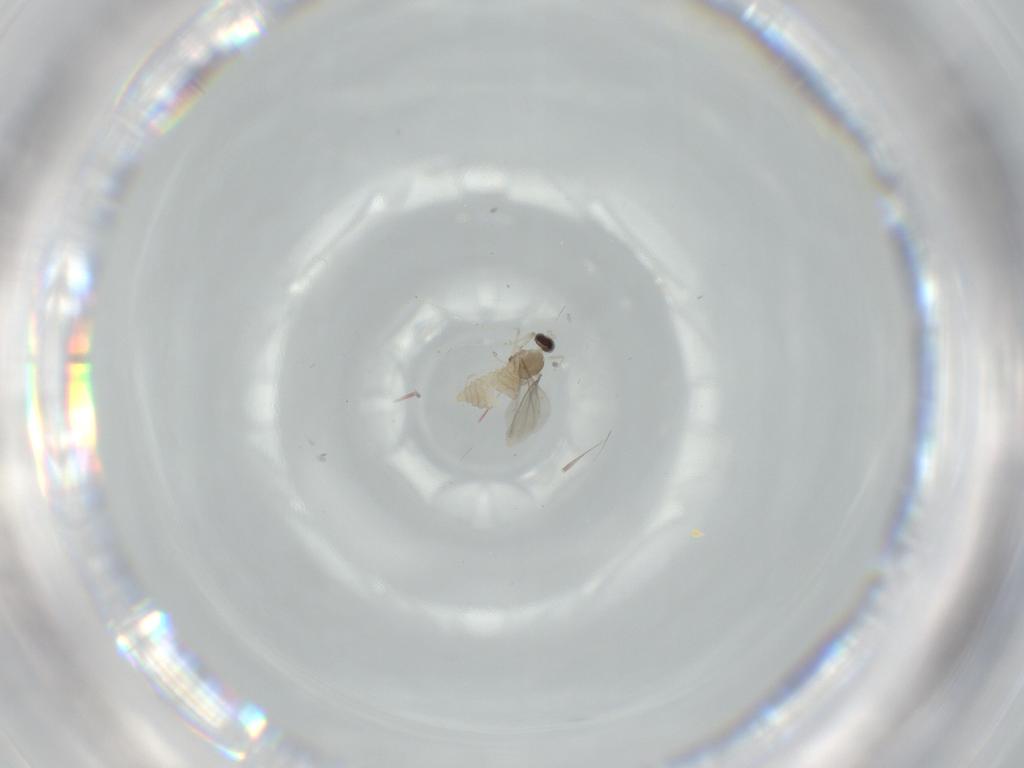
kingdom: Animalia
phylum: Arthropoda
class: Insecta
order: Diptera
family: Cecidomyiidae
